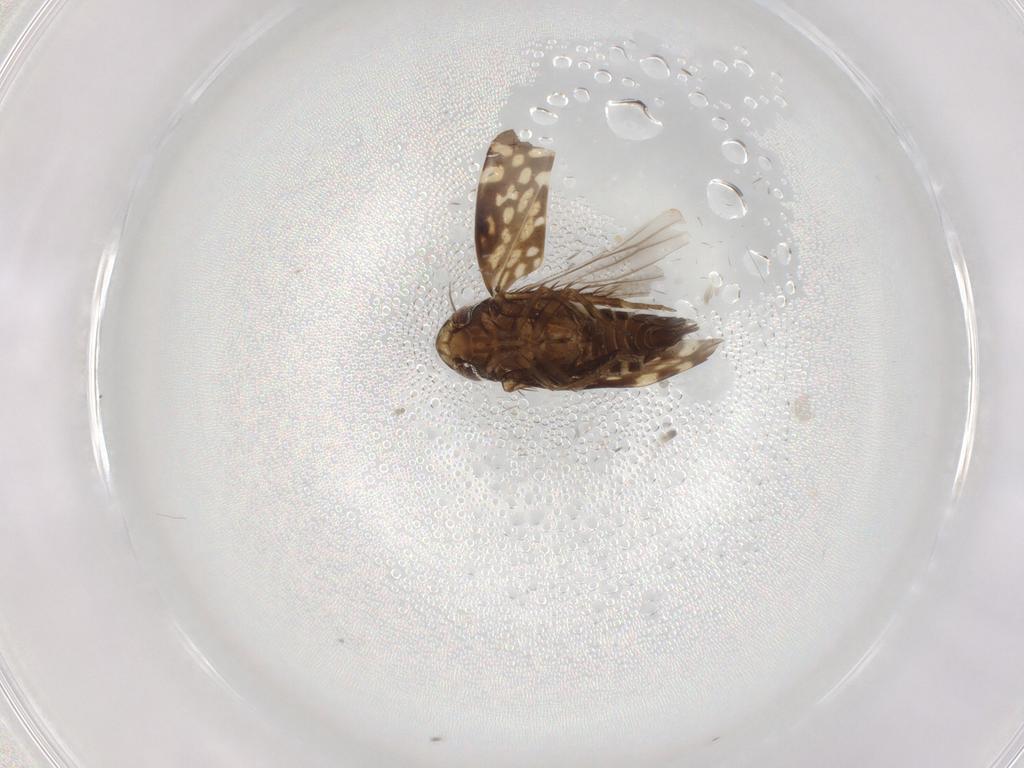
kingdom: Animalia
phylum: Arthropoda
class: Insecta
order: Hemiptera
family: Cicadellidae
